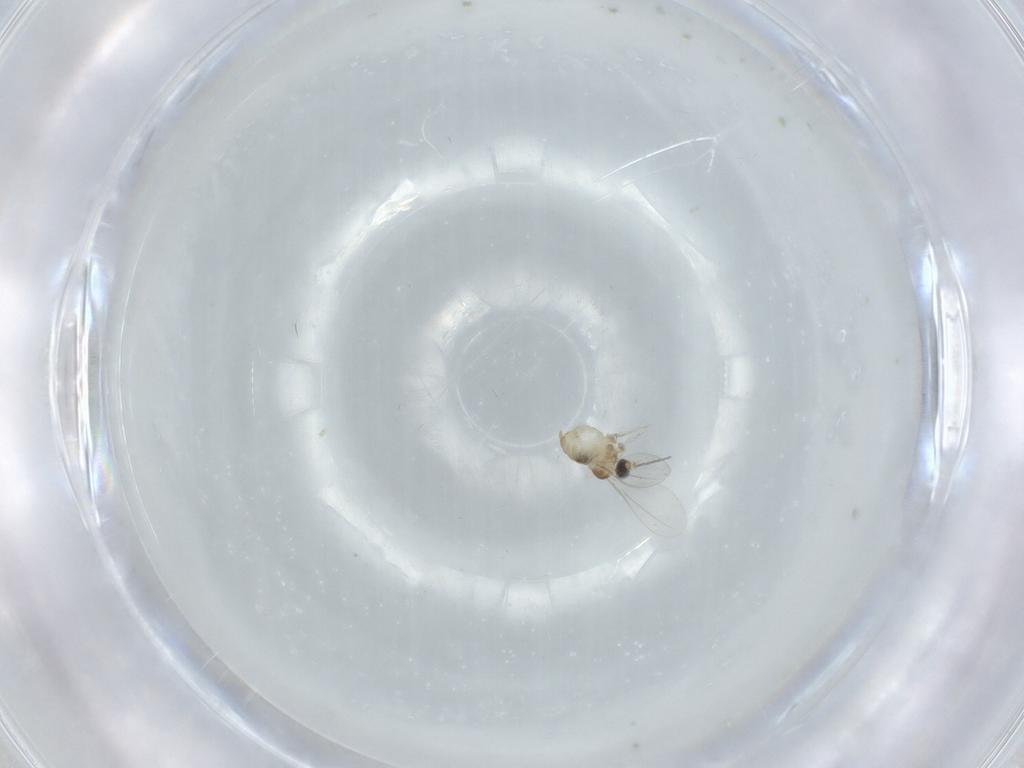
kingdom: Animalia
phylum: Arthropoda
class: Insecta
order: Diptera
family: Cecidomyiidae
